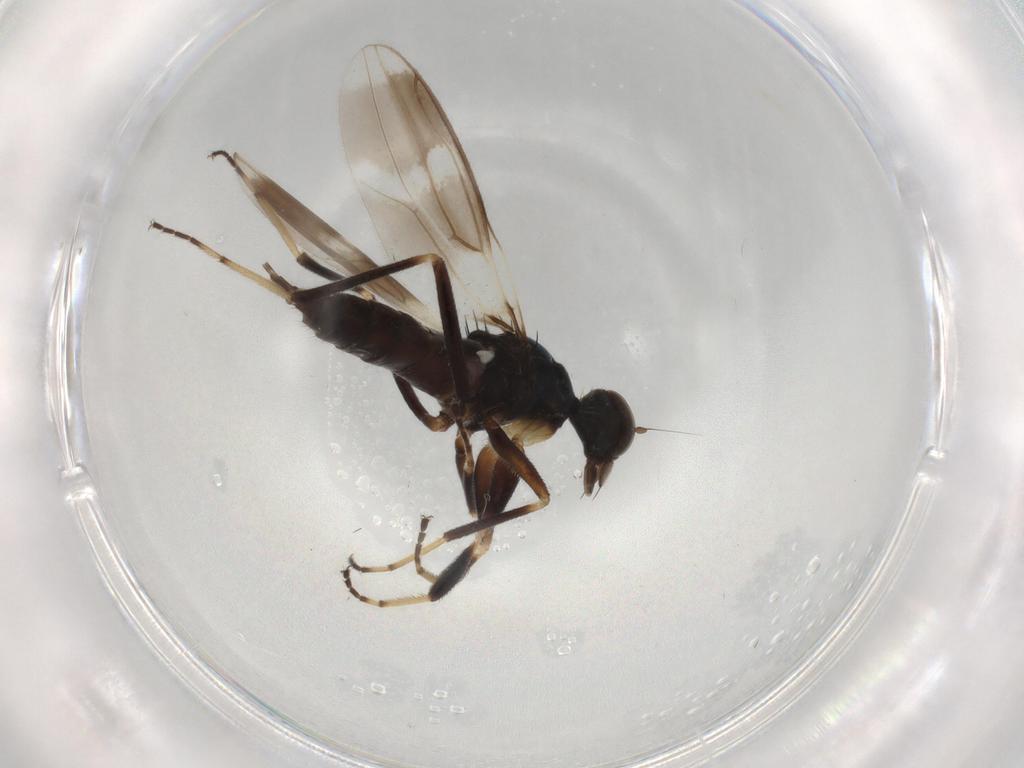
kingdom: Animalia
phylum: Arthropoda
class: Insecta
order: Diptera
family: Hybotidae
